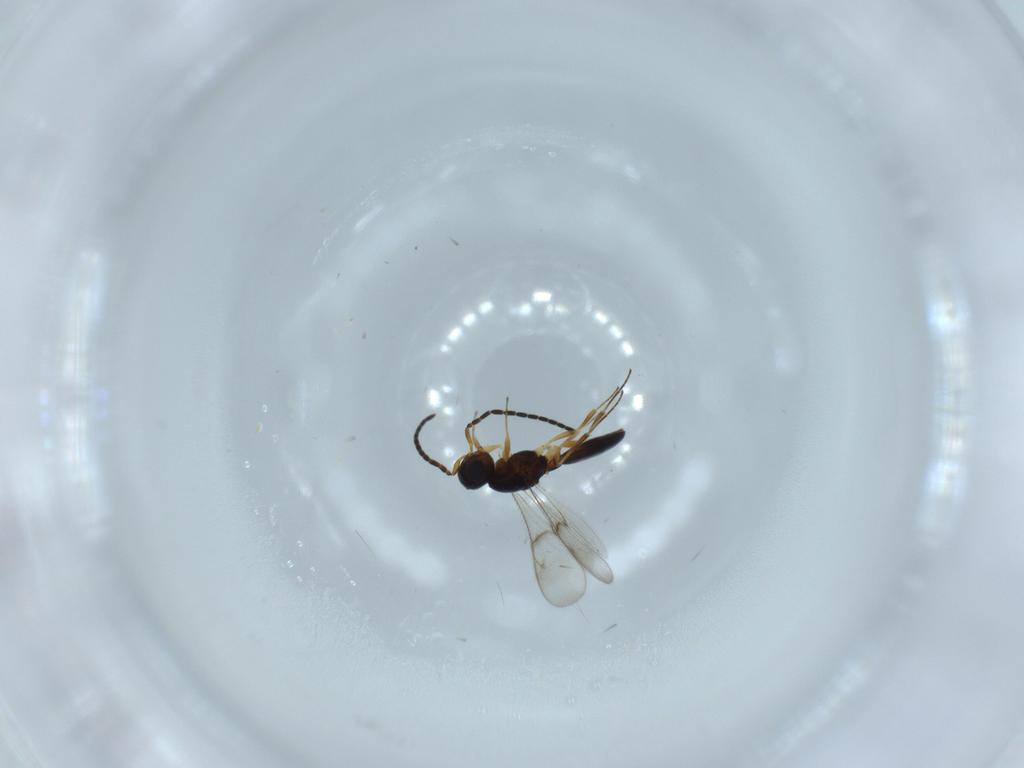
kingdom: Animalia
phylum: Arthropoda
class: Insecta
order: Hymenoptera
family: Scelionidae
